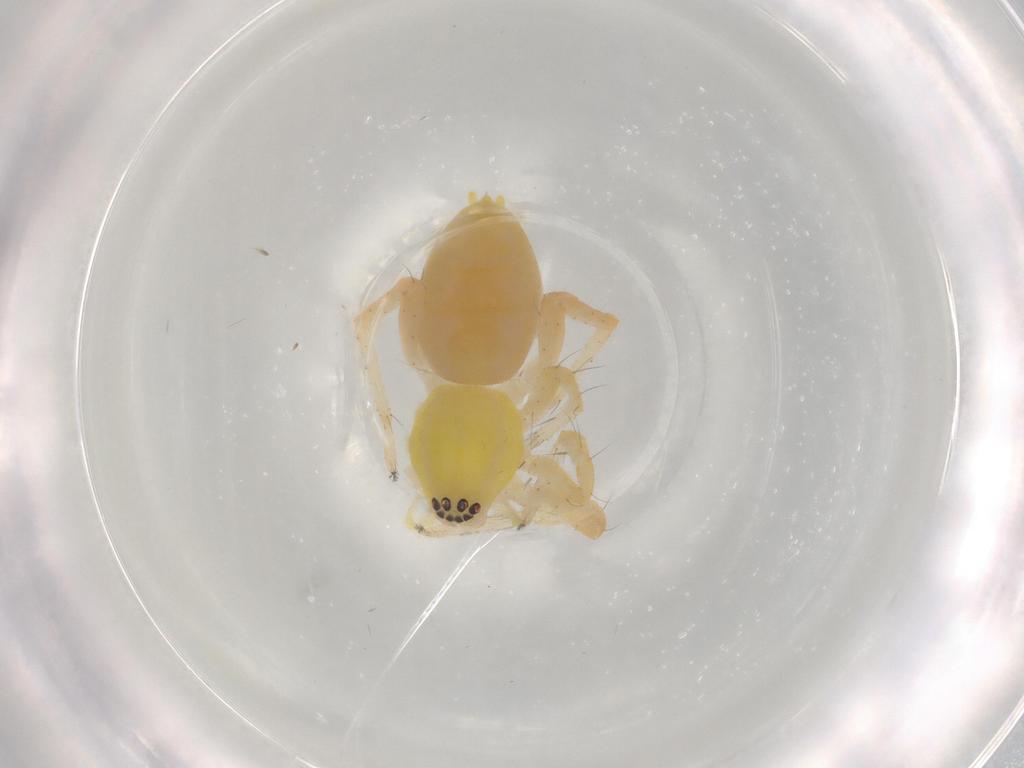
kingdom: Animalia
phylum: Arthropoda
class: Arachnida
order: Araneae
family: Anyphaenidae
